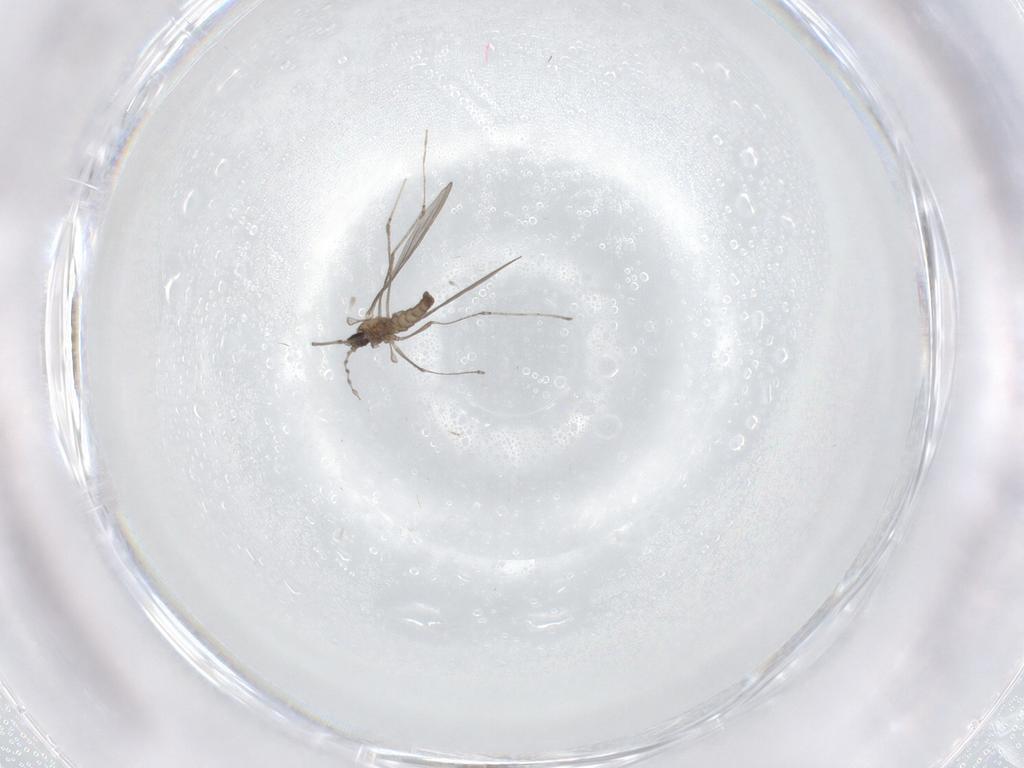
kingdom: Animalia
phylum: Arthropoda
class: Insecta
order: Diptera
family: Cecidomyiidae
